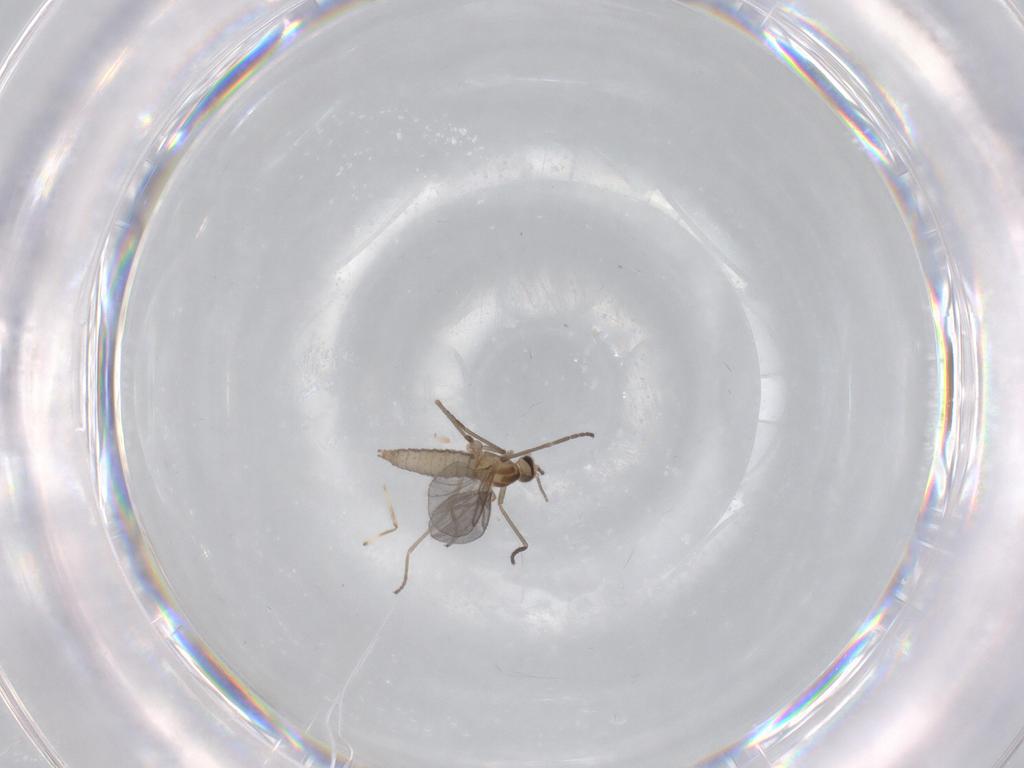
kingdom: Animalia
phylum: Arthropoda
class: Insecta
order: Diptera
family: Cecidomyiidae
